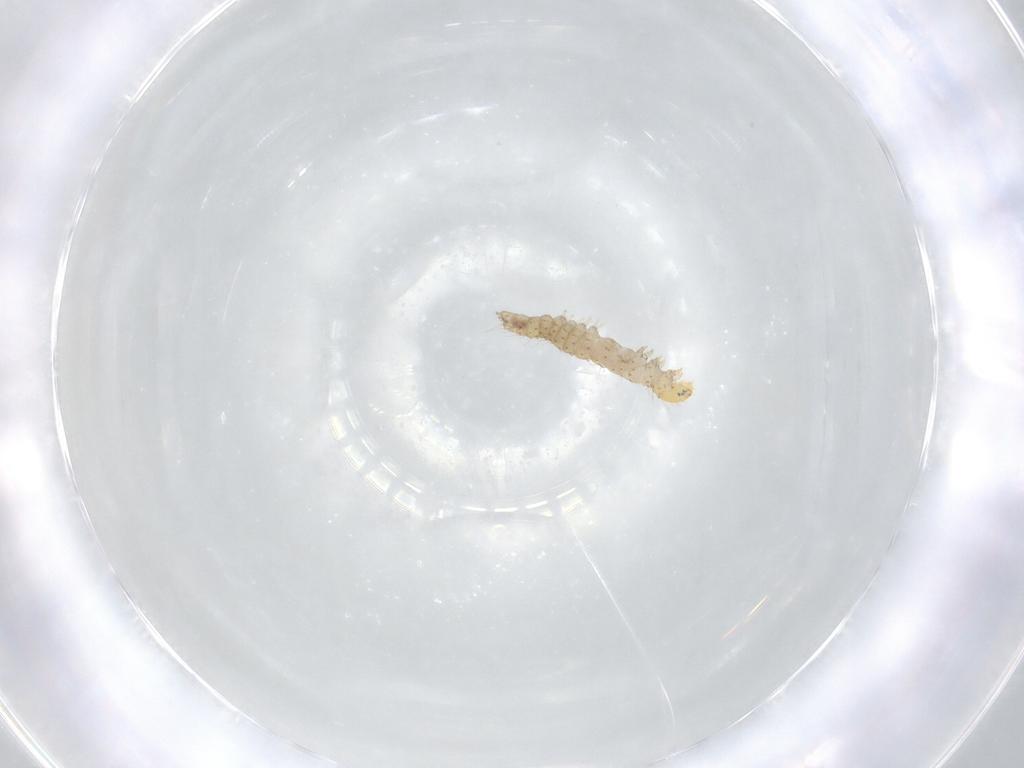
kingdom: Animalia
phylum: Arthropoda
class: Insecta
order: Lepidoptera
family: Immidae
